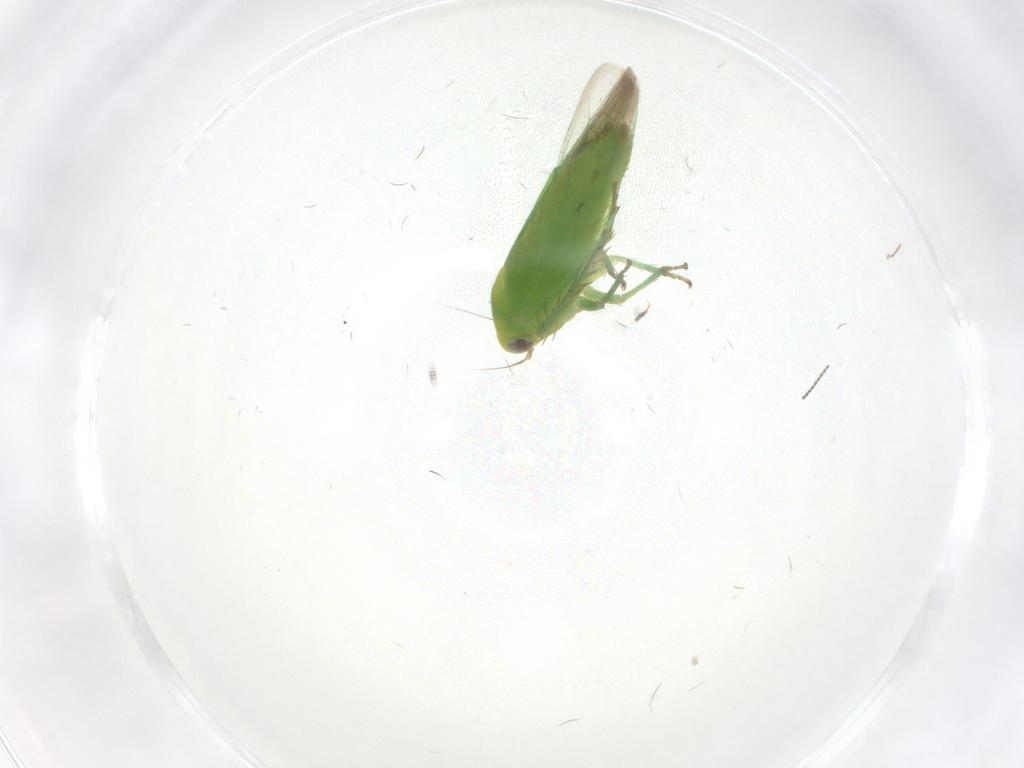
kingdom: Animalia
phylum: Arthropoda
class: Insecta
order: Hemiptera
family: Cicadellidae
